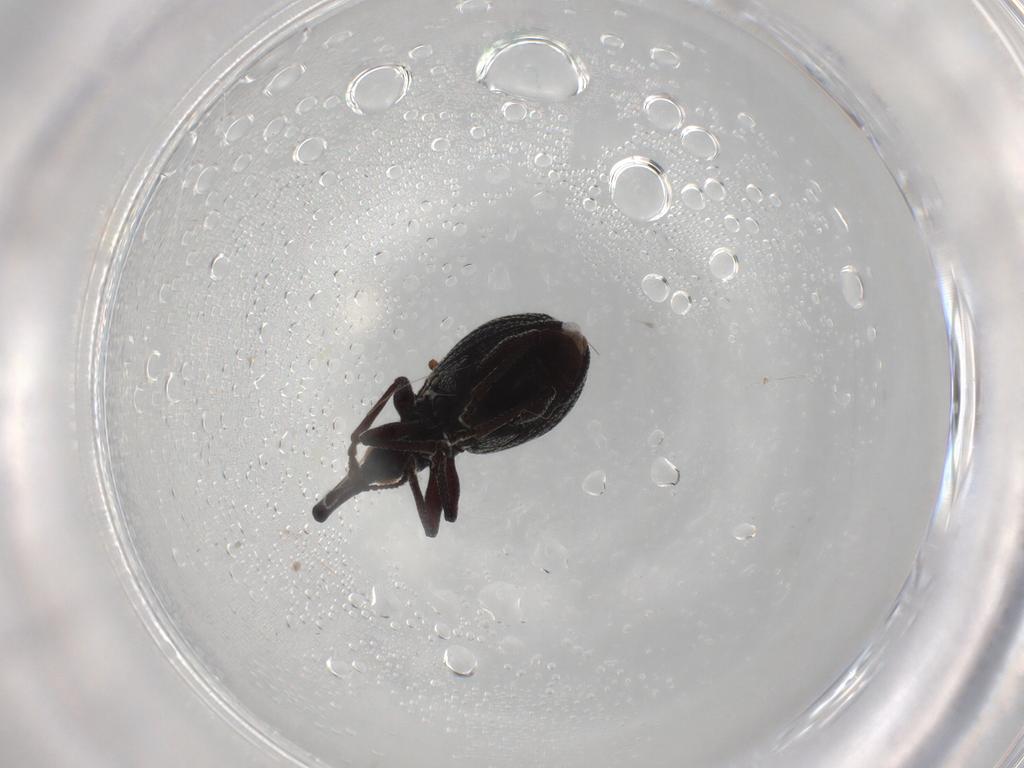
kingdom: Animalia
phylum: Arthropoda
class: Insecta
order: Coleoptera
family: Brentidae
